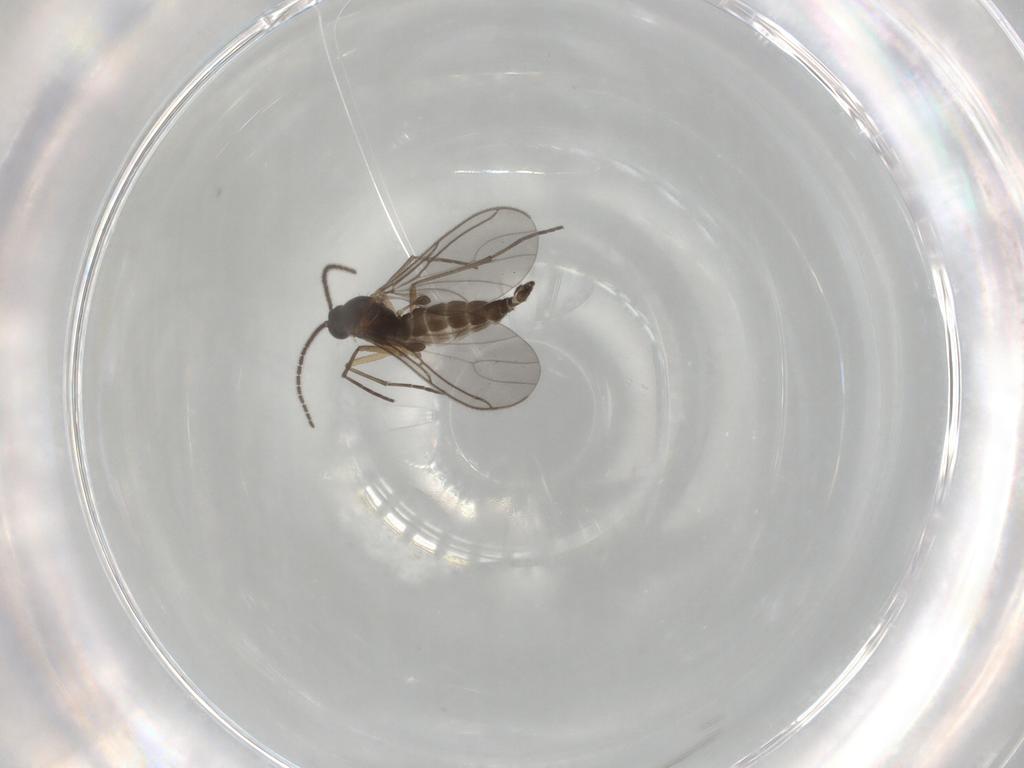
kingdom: Animalia
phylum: Arthropoda
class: Insecta
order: Diptera
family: Sciaridae
